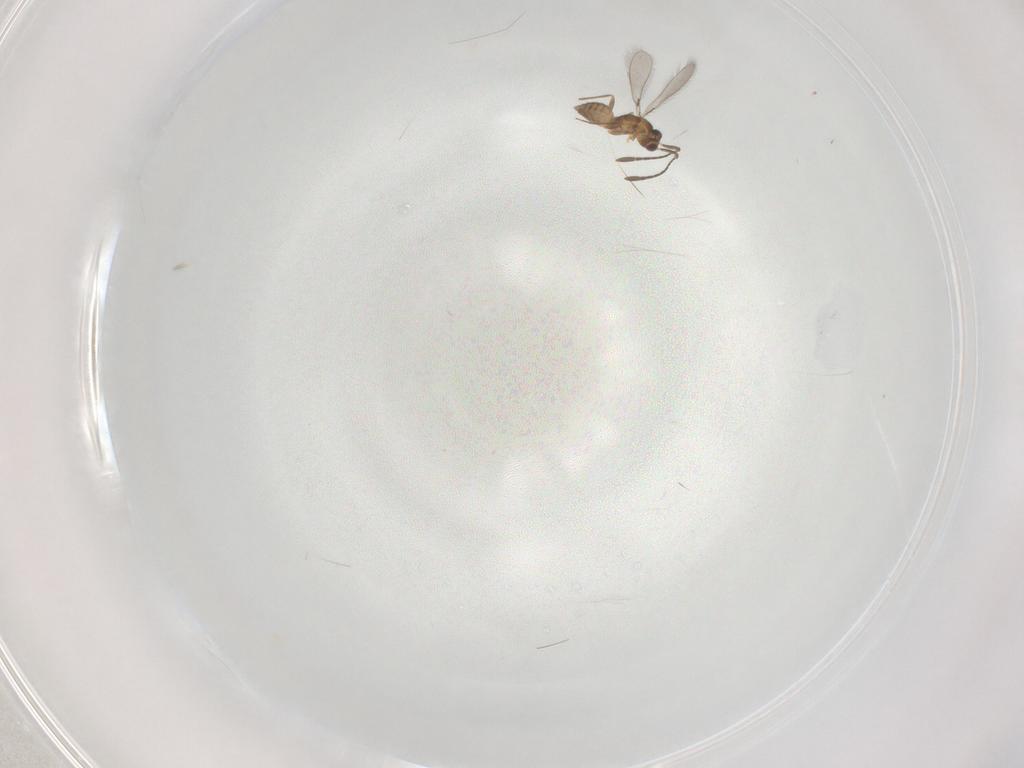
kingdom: Animalia
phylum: Arthropoda
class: Insecta
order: Hymenoptera
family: Mymaridae
